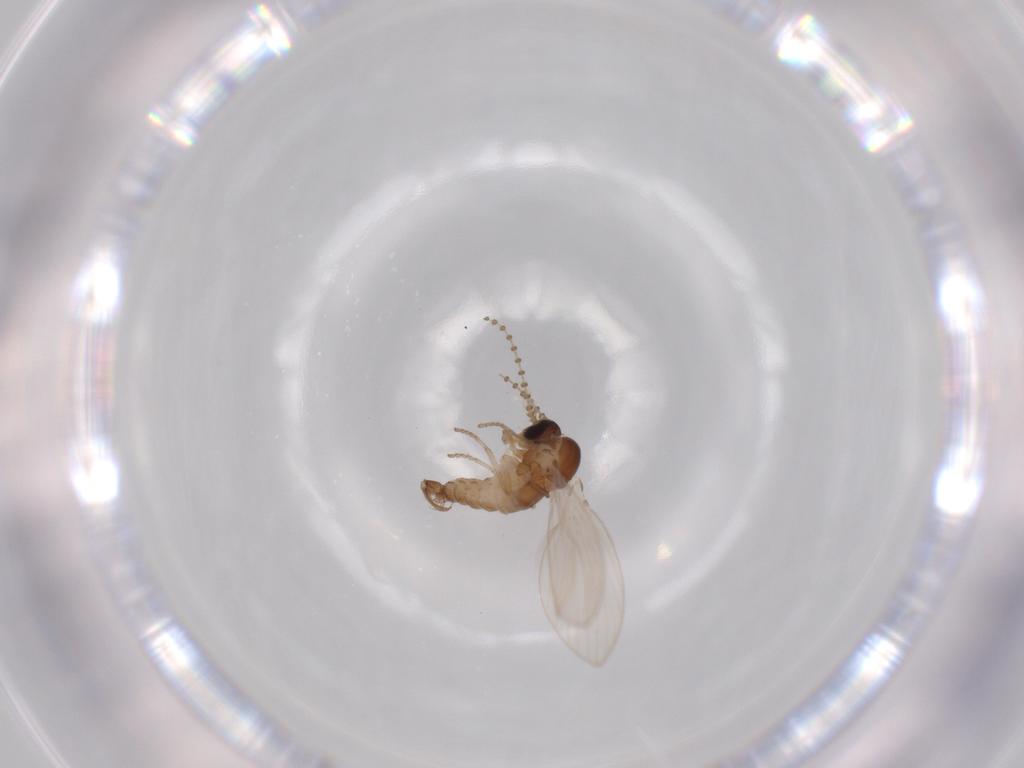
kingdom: Animalia
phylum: Arthropoda
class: Insecta
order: Diptera
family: Psychodidae
